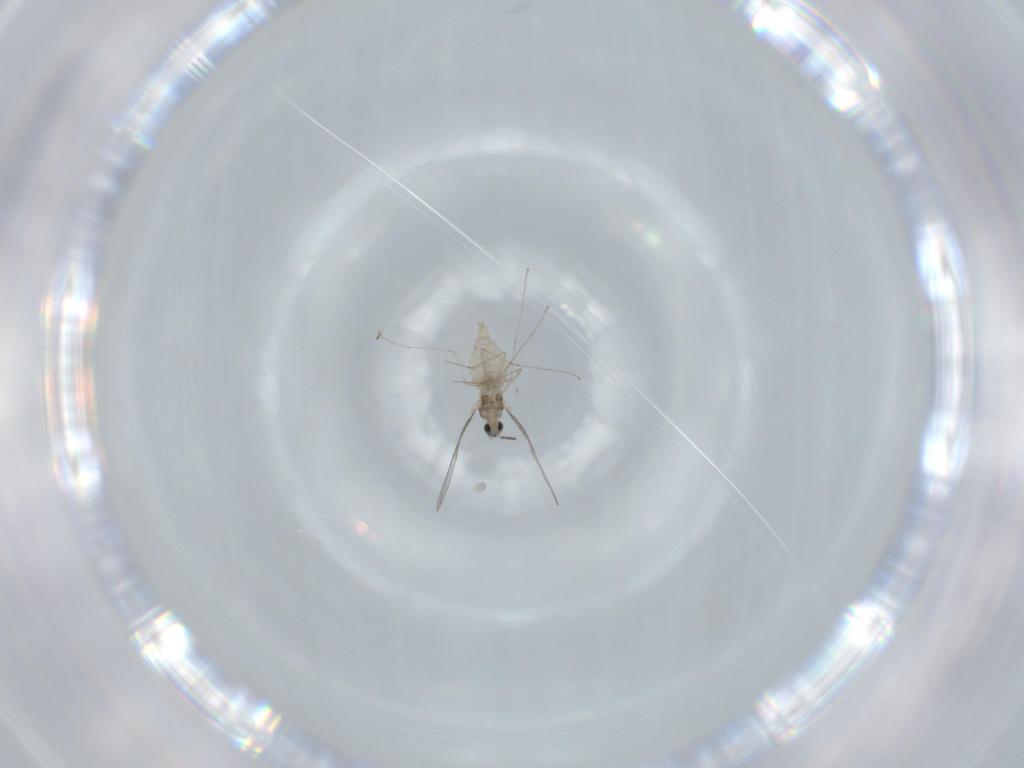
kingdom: Animalia
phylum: Arthropoda
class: Insecta
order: Diptera
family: Cecidomyiidae
